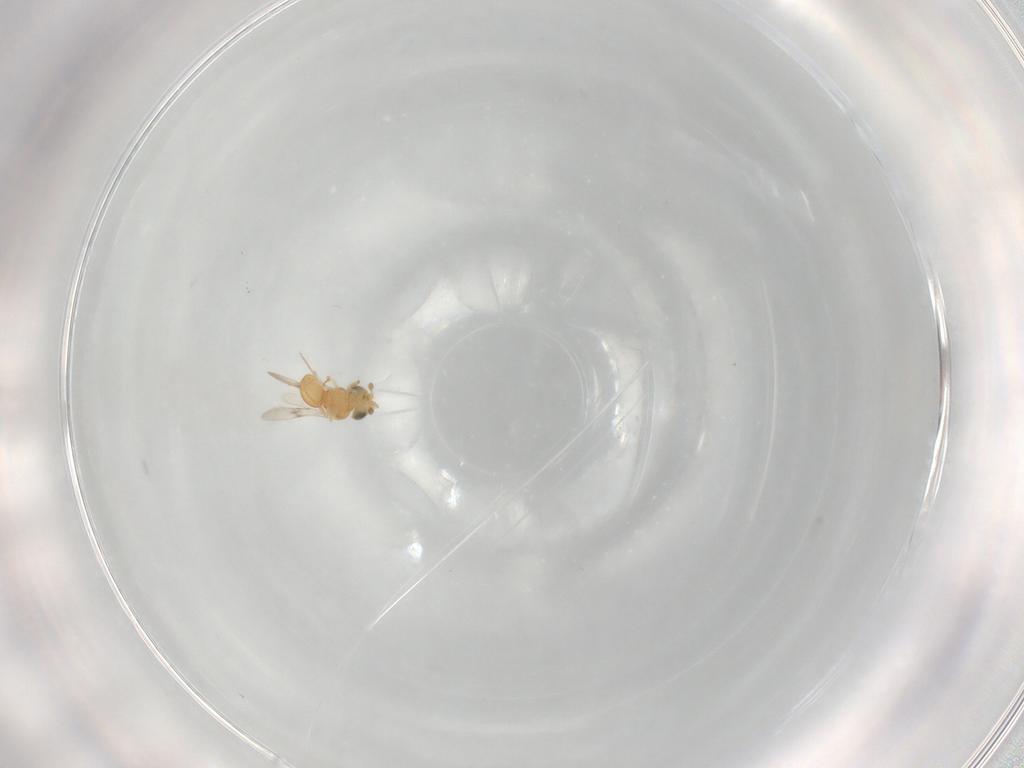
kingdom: Animalia
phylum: Arthropoda
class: Insecta
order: Hymenoptera
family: Scelionidae
